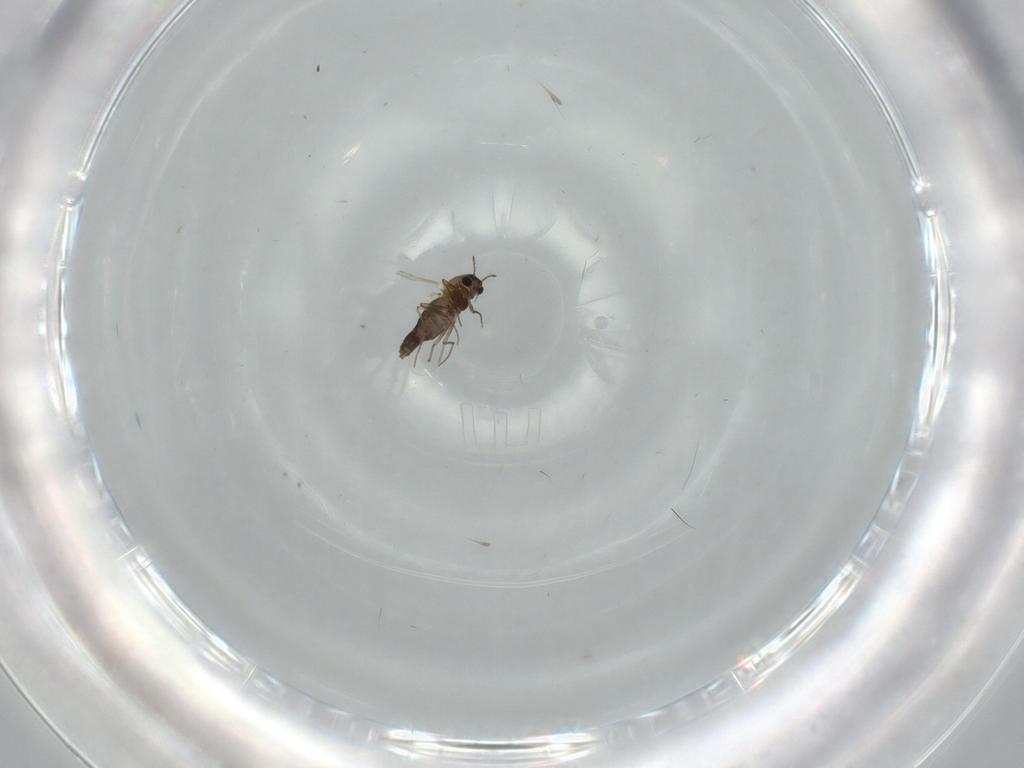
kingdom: Animalia
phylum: Arthropoda
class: Insecta
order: Diptera
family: Chironomidae
